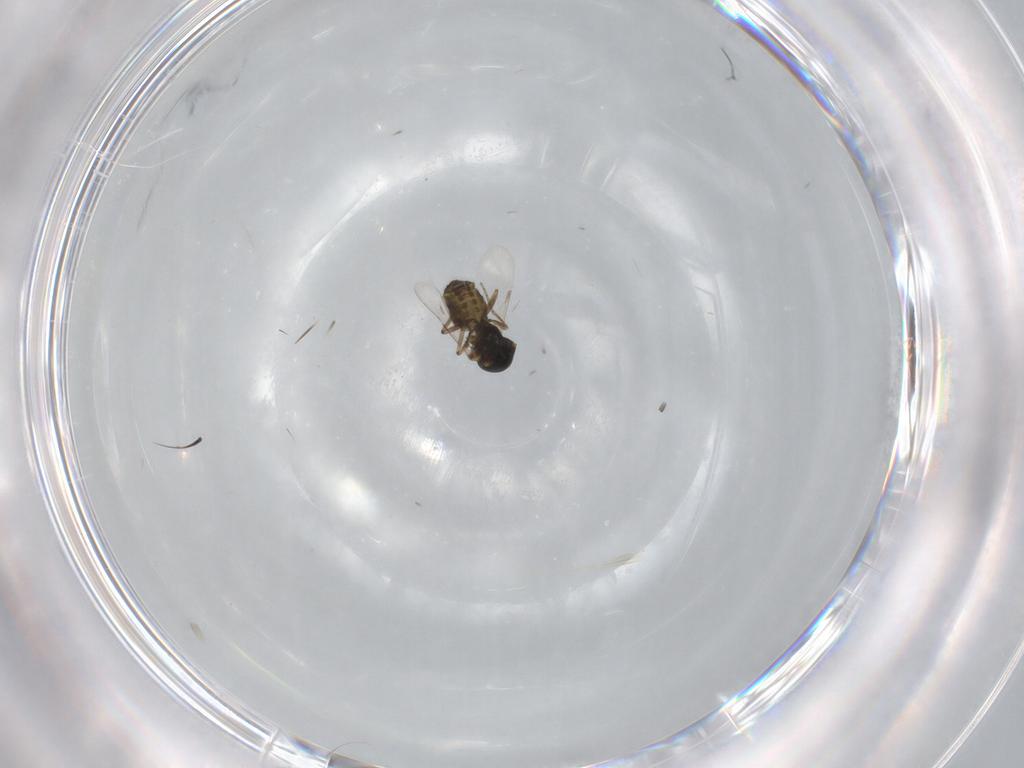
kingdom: Animalia
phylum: Arthropoda
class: Insecta
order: Diptera
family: Ceratopogonidae
